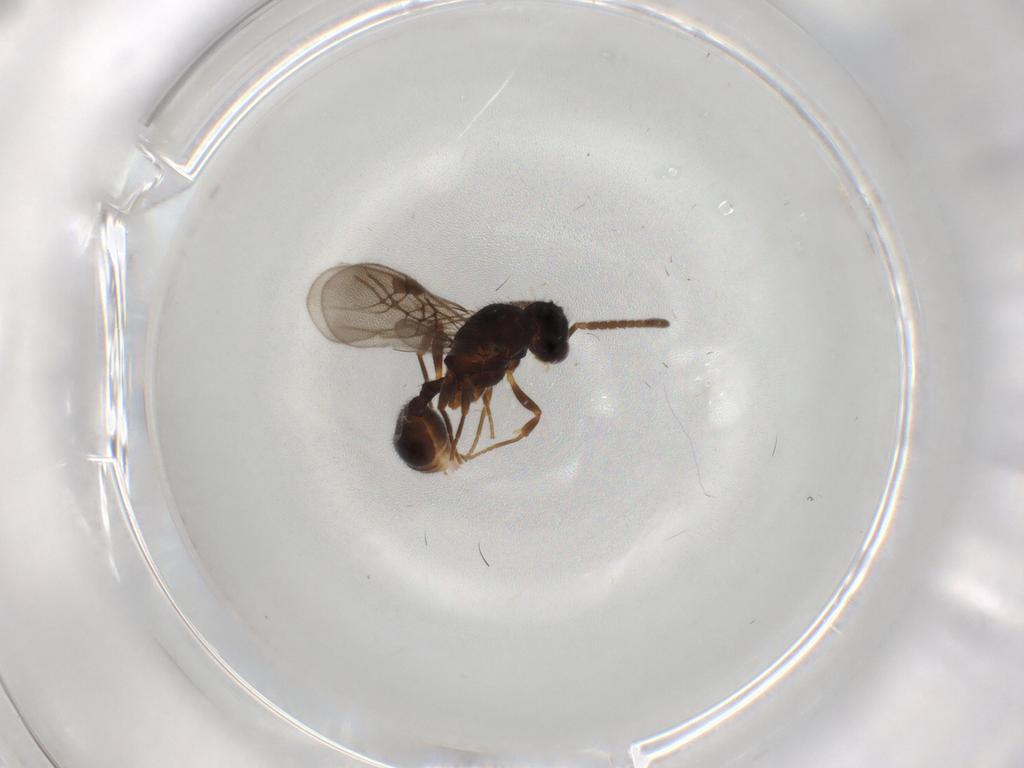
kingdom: Animalia
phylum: Arthropoda
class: Insecta
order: Hymenoptera
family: Formicidae
